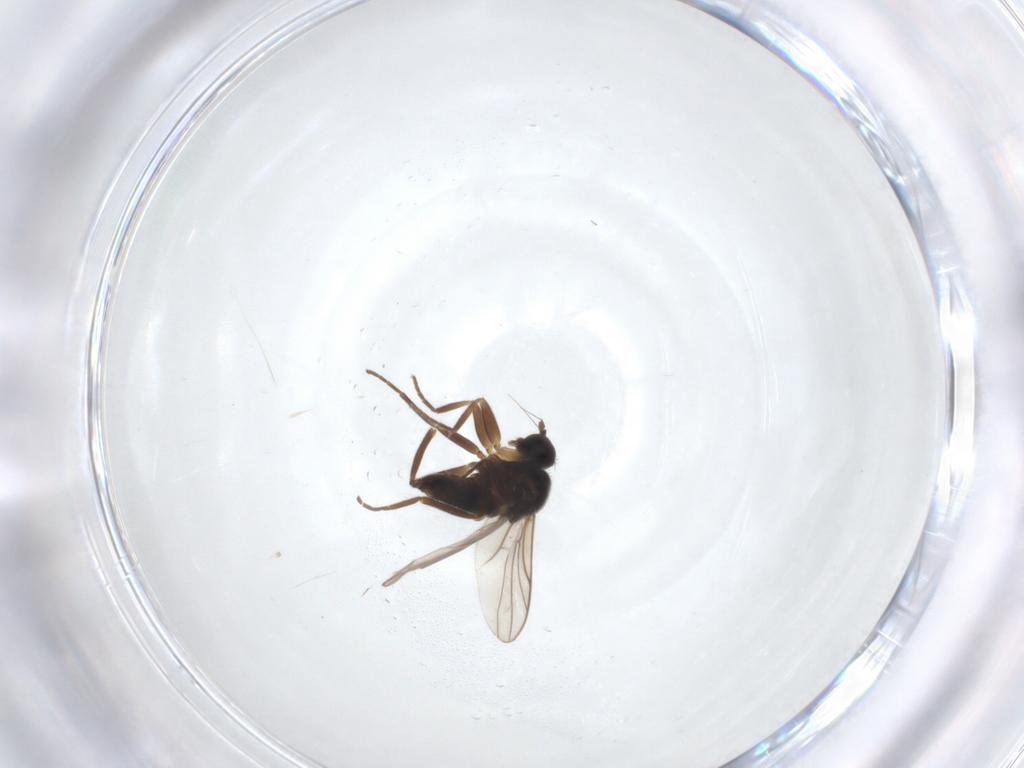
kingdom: Animalia
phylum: Arthropoda
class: Insecta
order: Diptera
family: Hybotidae
